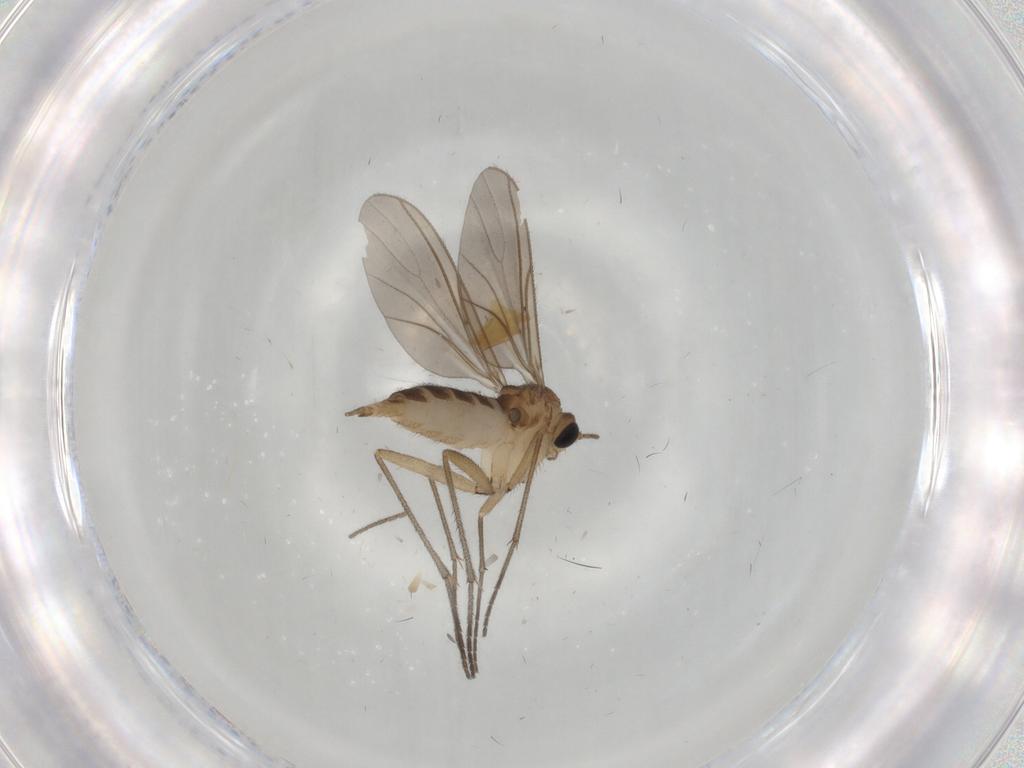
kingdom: Animalia
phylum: Arthropoda
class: Insecta
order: Diptera
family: Sciaridae
